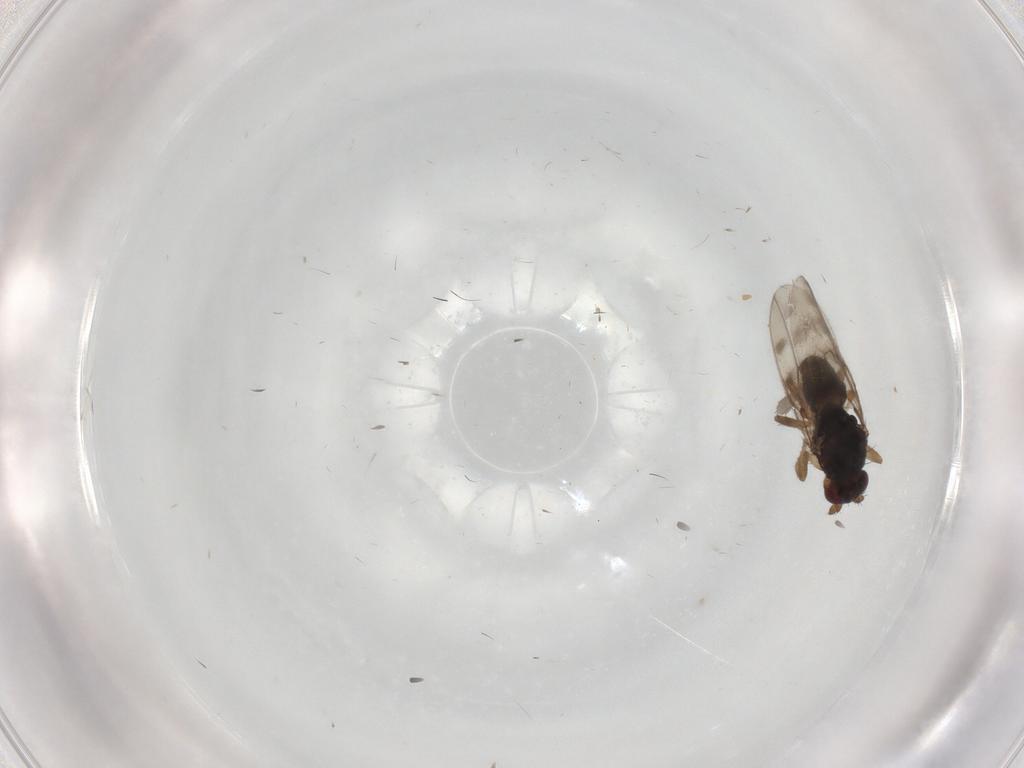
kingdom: Animalia
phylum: Arthropoda
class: Insecta
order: Diptera
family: Sphaeroceridae
